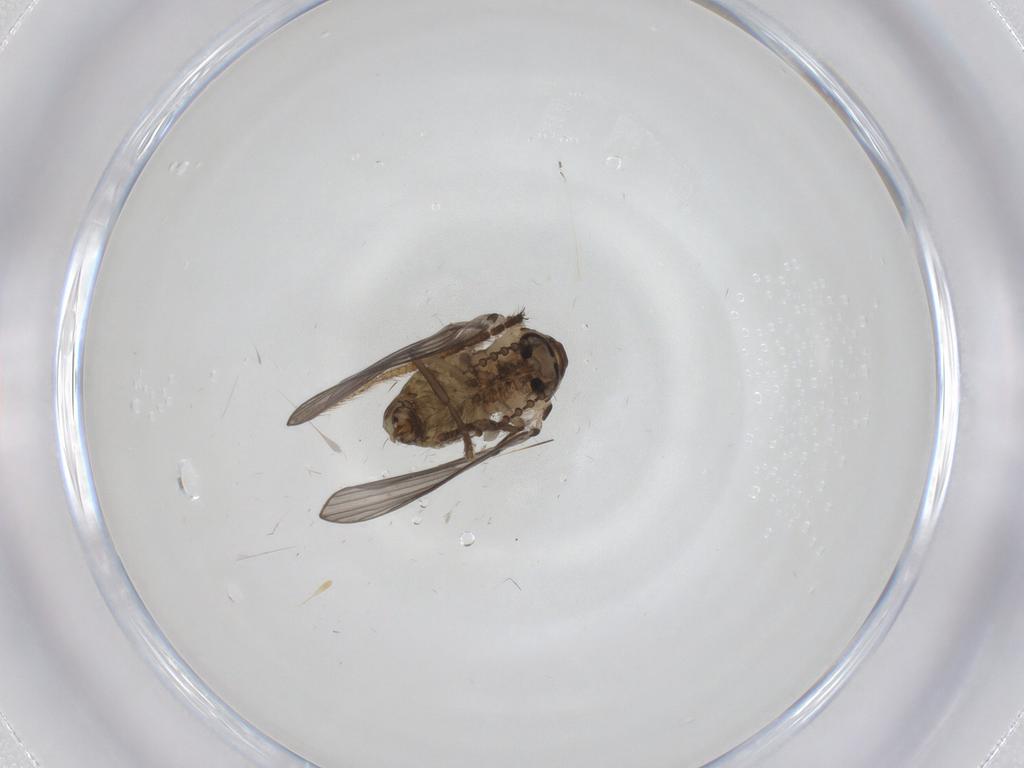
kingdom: Animalia
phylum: Arthropoda
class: Insecta
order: Diptera
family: Psychodidae
